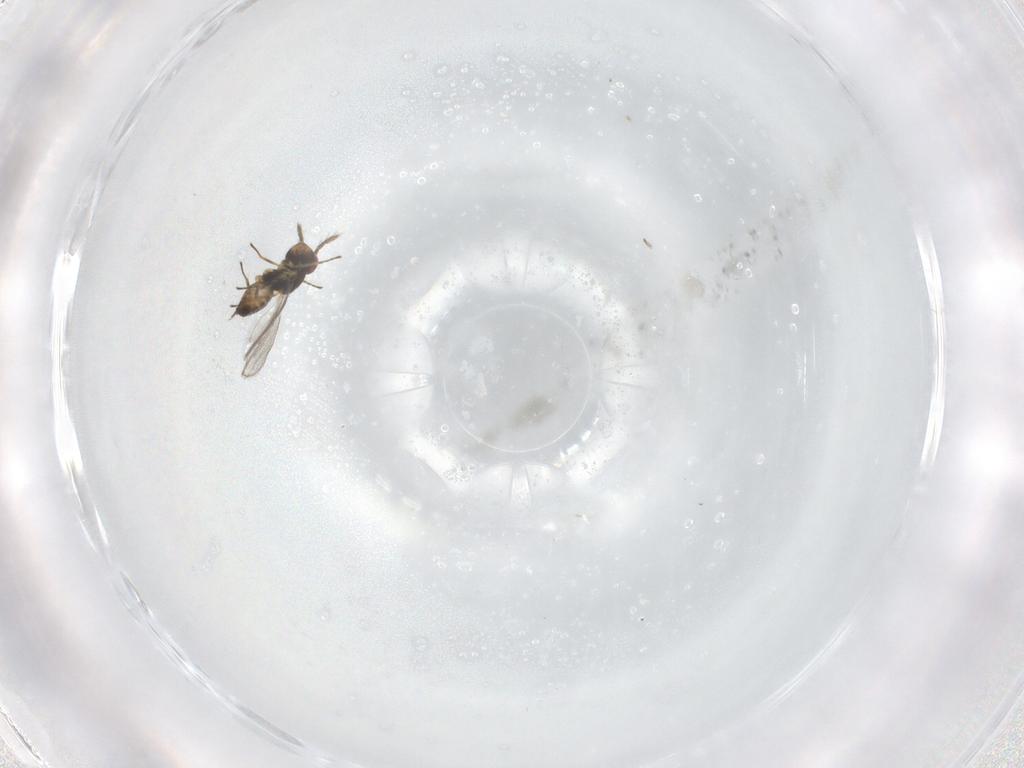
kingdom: Animalia
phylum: Arthropoda
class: Insecta
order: Hymenoptera
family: Eulophidae
